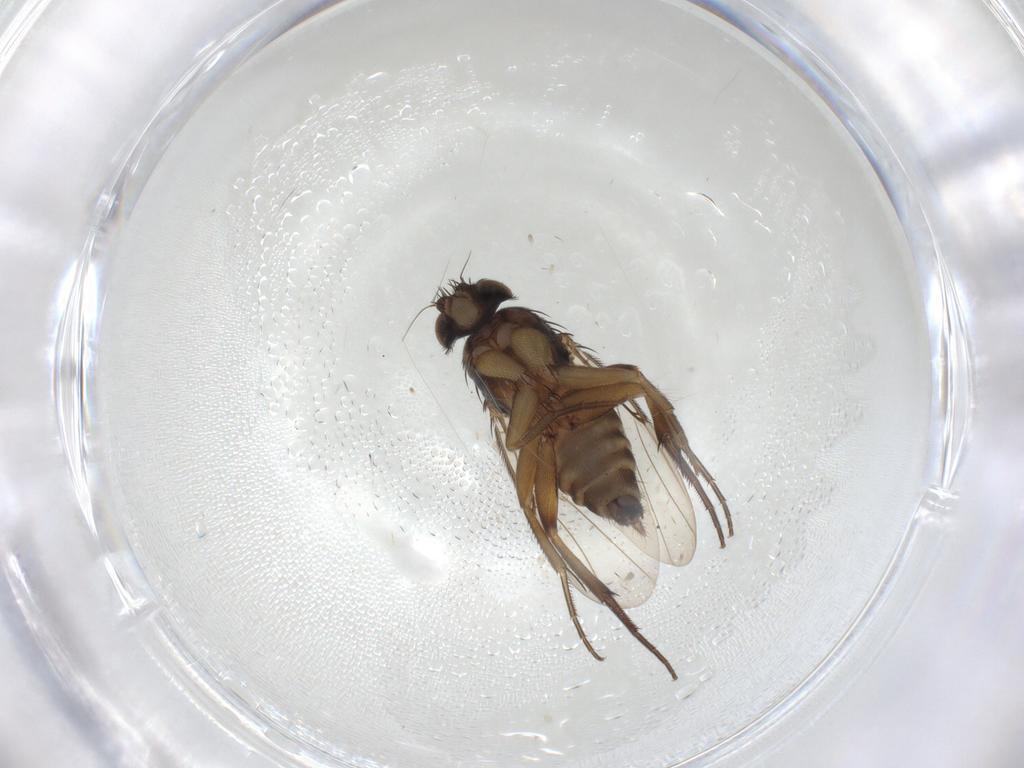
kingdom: Animalia
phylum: Arthropoda
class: Insecta
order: Diptera
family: Phoridae
